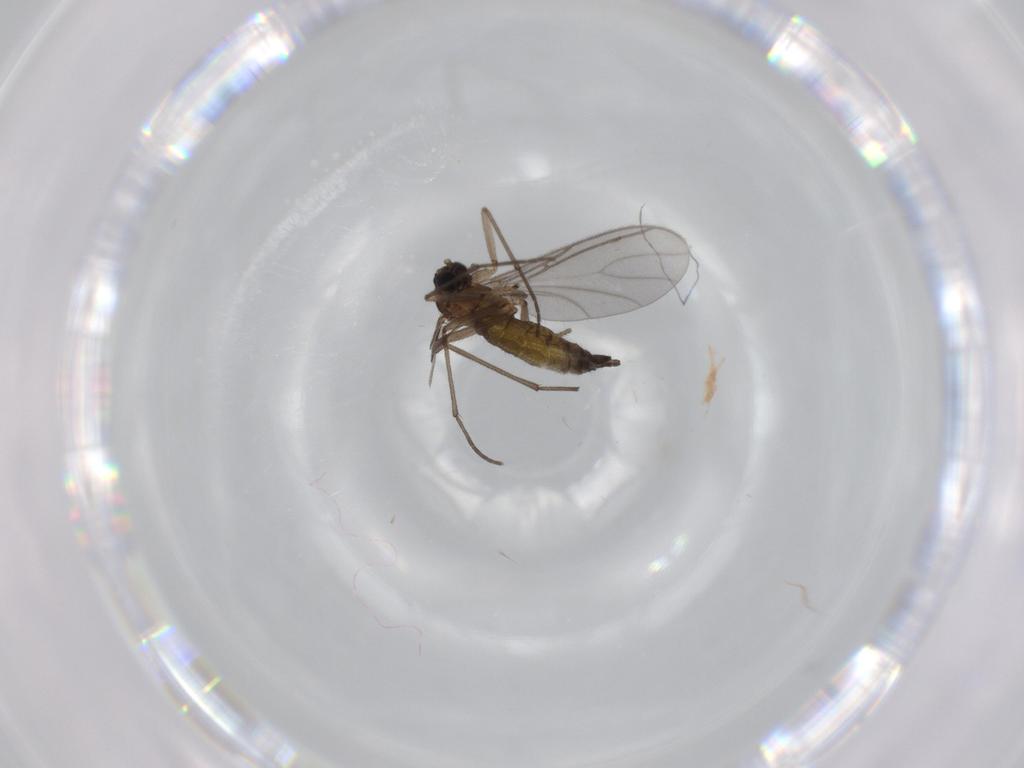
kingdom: Animalia
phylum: Arthropoda
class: Insecta
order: Diptera
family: Sciaridae
